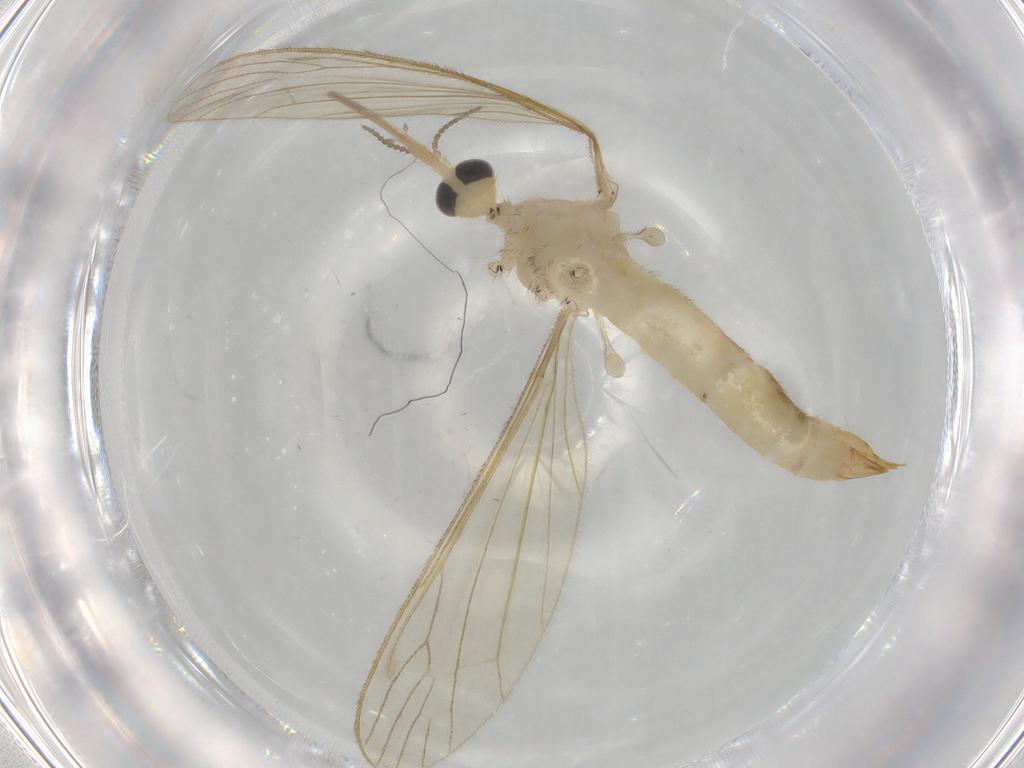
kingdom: Animalia
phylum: Arthropoda
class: Insecta
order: Diptera
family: Limoniidae
